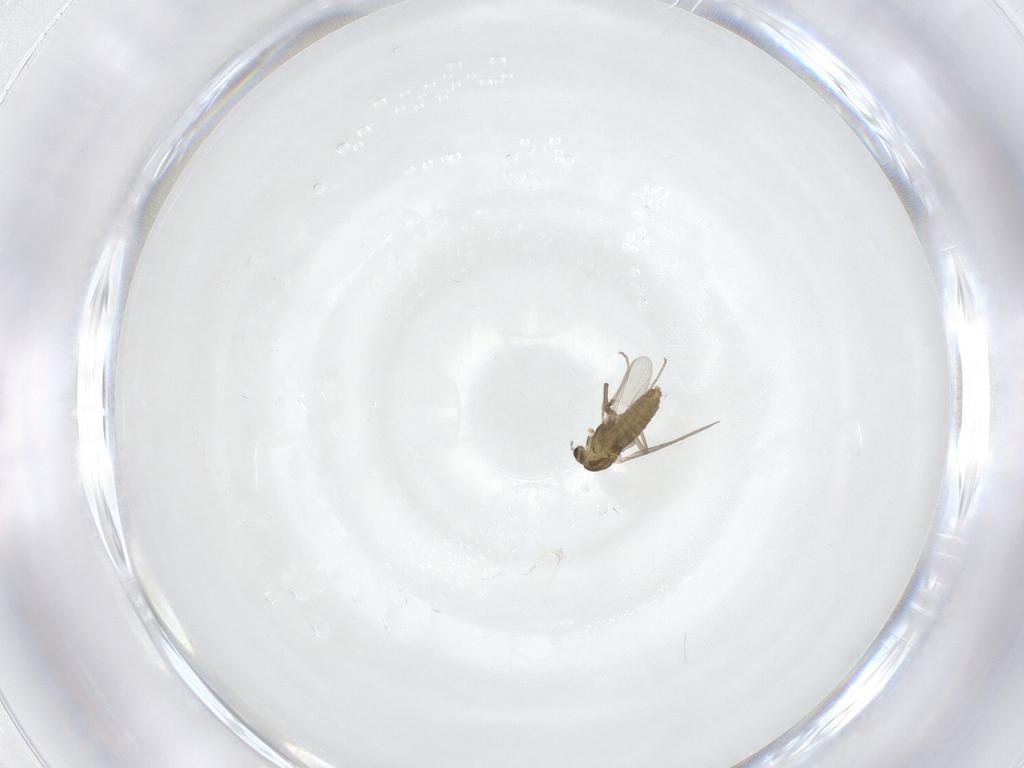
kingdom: Animalia
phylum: Arthropoda
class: Insecta
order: Diptera
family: Chironomidae
